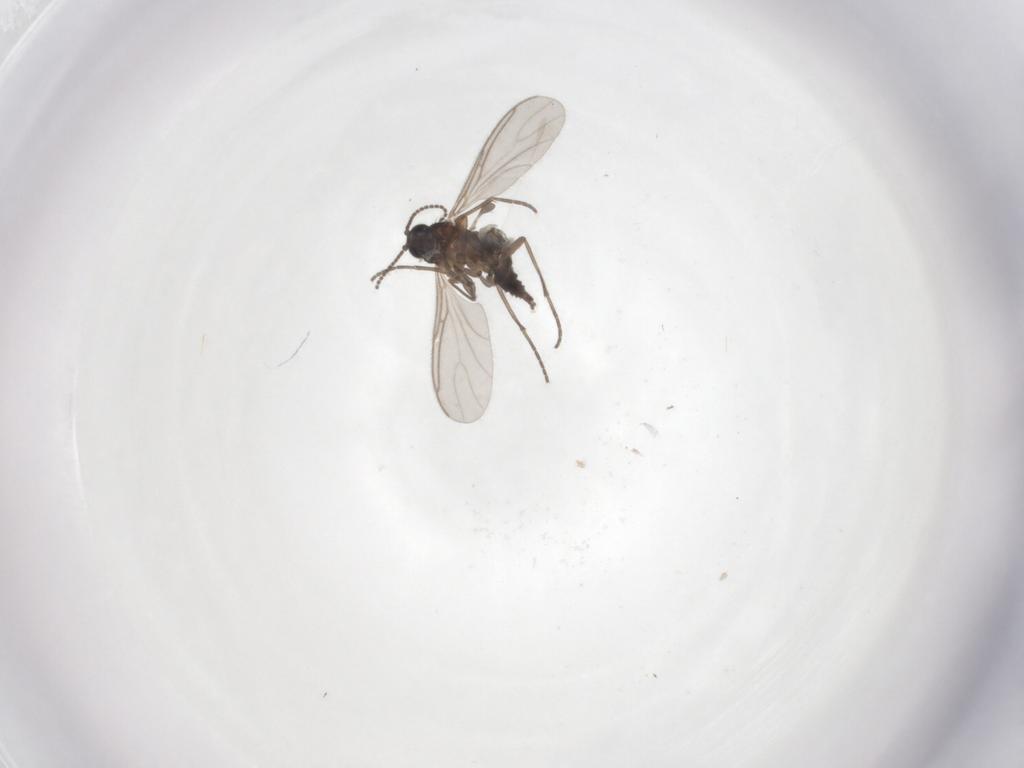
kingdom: Animalia
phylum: Arthropoda
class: Insecta
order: Diptera
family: Sciaridae
